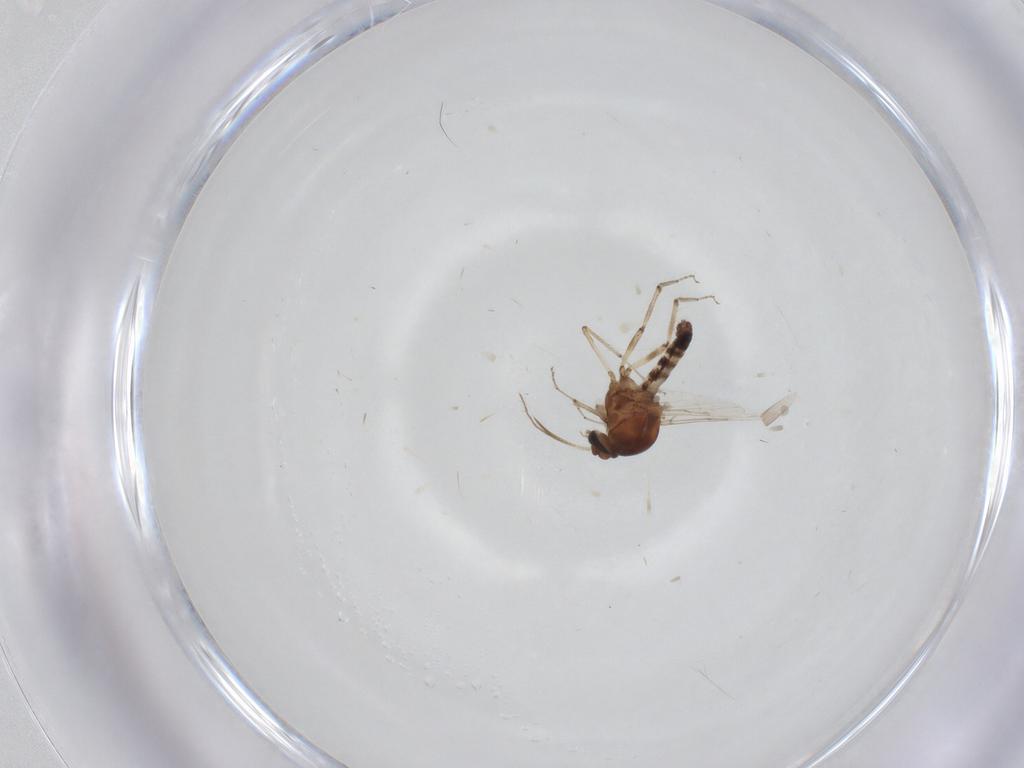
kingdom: Animalia
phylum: Arthropoda
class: Insecta
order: Diptera
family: Ceratopogonidae
